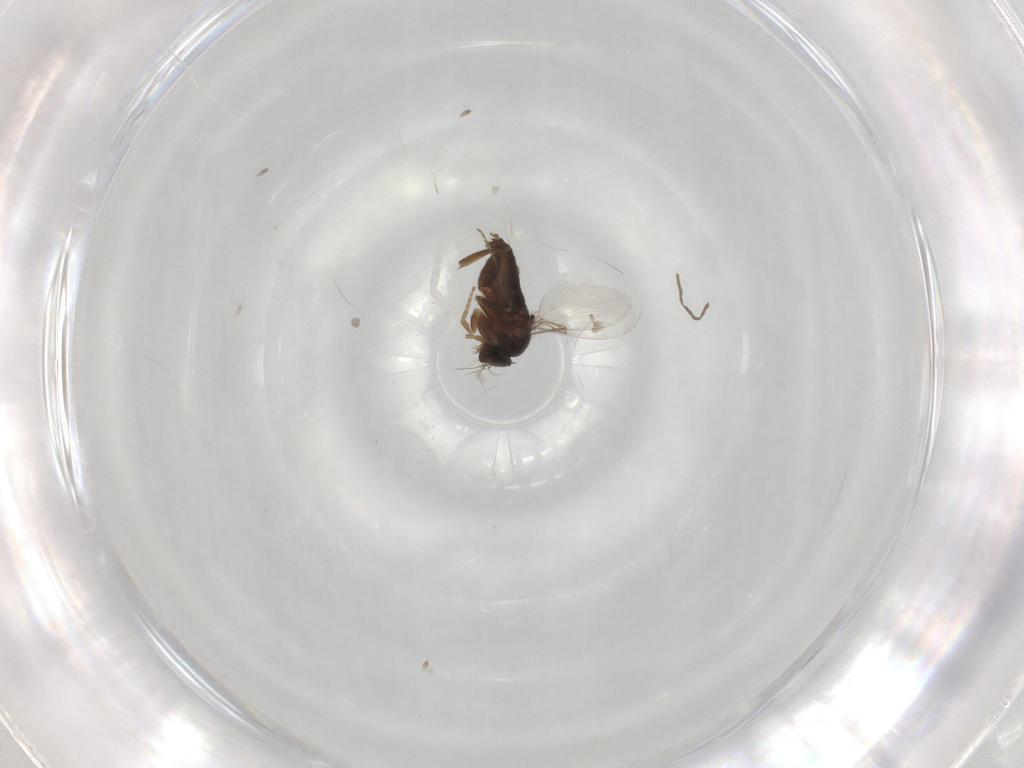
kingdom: Animalia
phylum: Arthropoda
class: Insecta
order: Diptera
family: Phoridae
